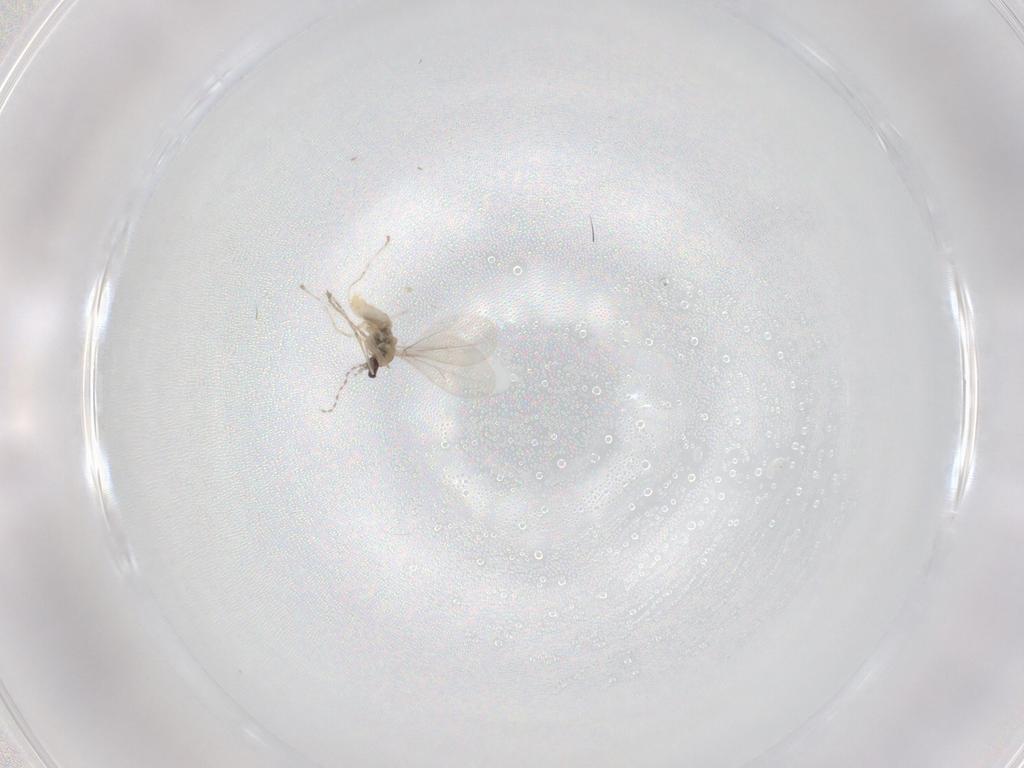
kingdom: Animalia
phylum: Arthropoda
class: Insecta
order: Diptera
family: Cecidomyiidae
